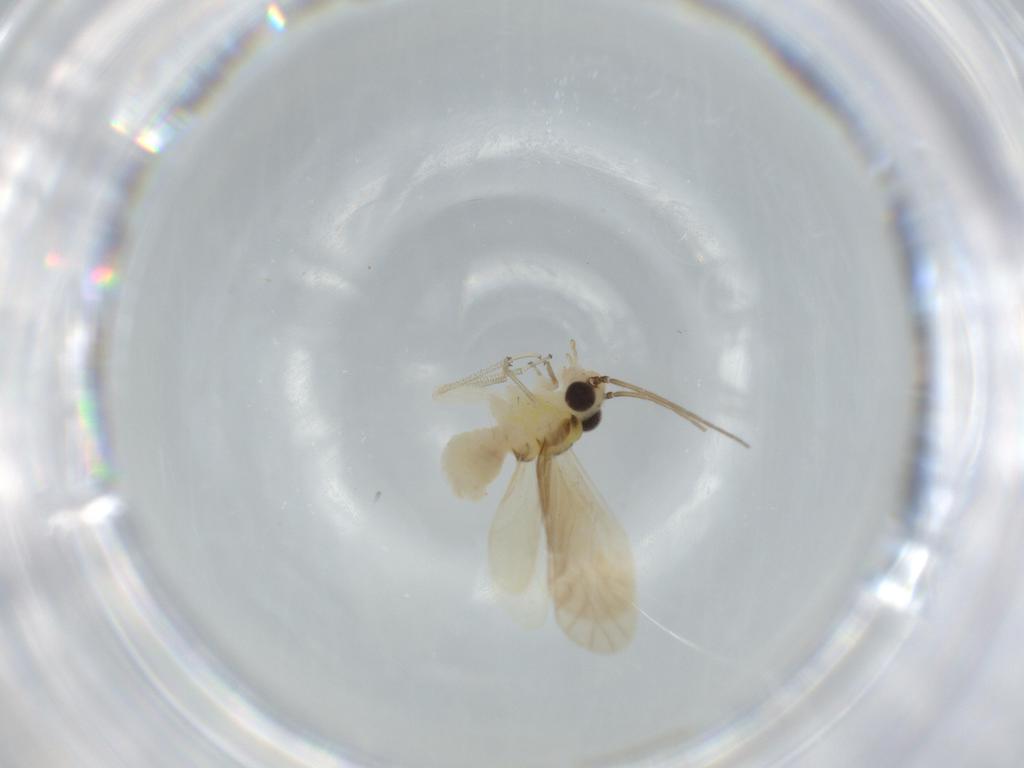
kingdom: Animalia
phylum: Arthropoda
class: Insecta
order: Psocodea
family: Caeciliusidae
